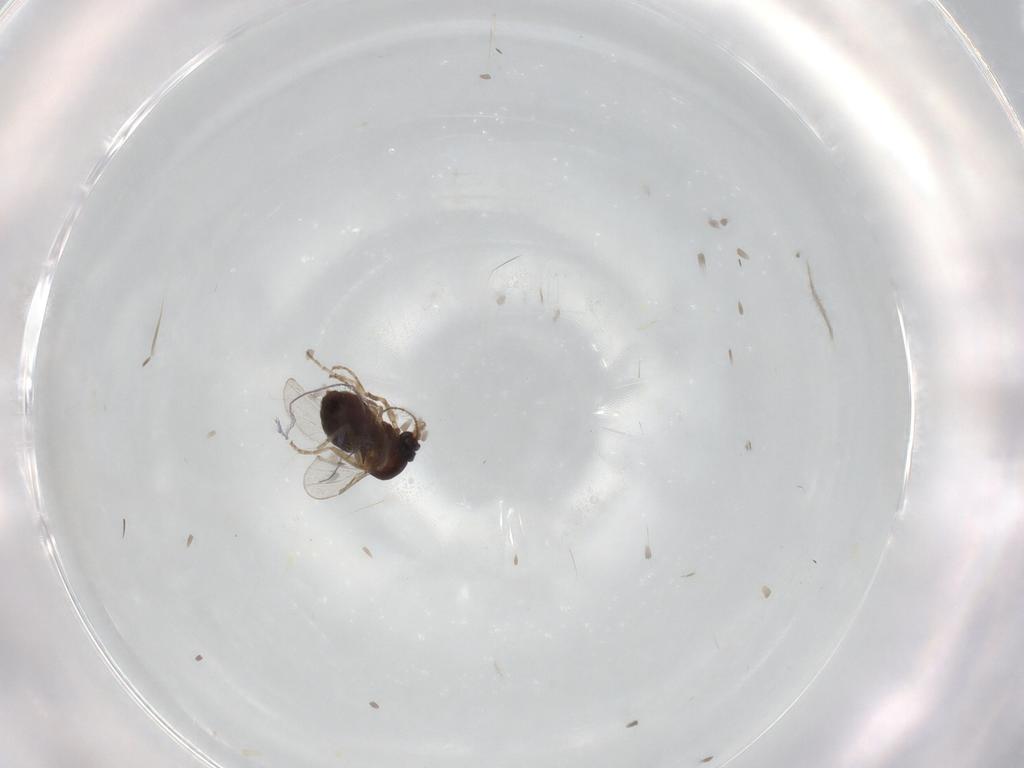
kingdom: Animalia
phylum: Arthropoda
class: Insecta
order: Diptera
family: Ceratopogonidae
